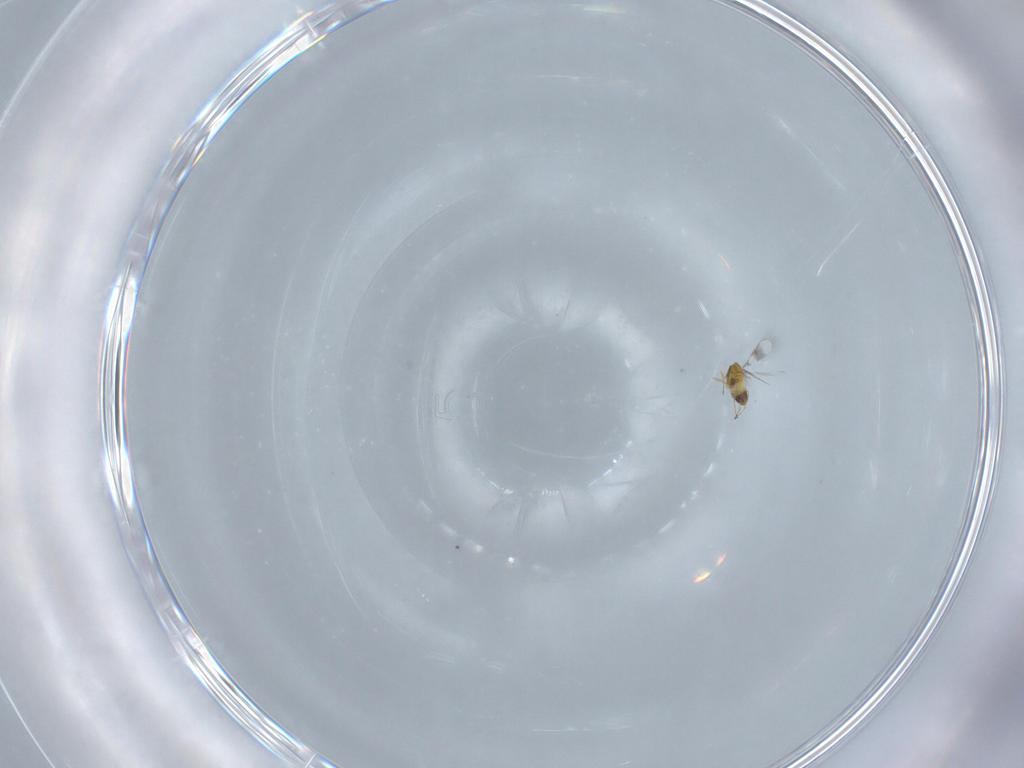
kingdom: Animalia
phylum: Arthropoda
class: Insecta
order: Hymenoptera
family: Trichogrammatidae
